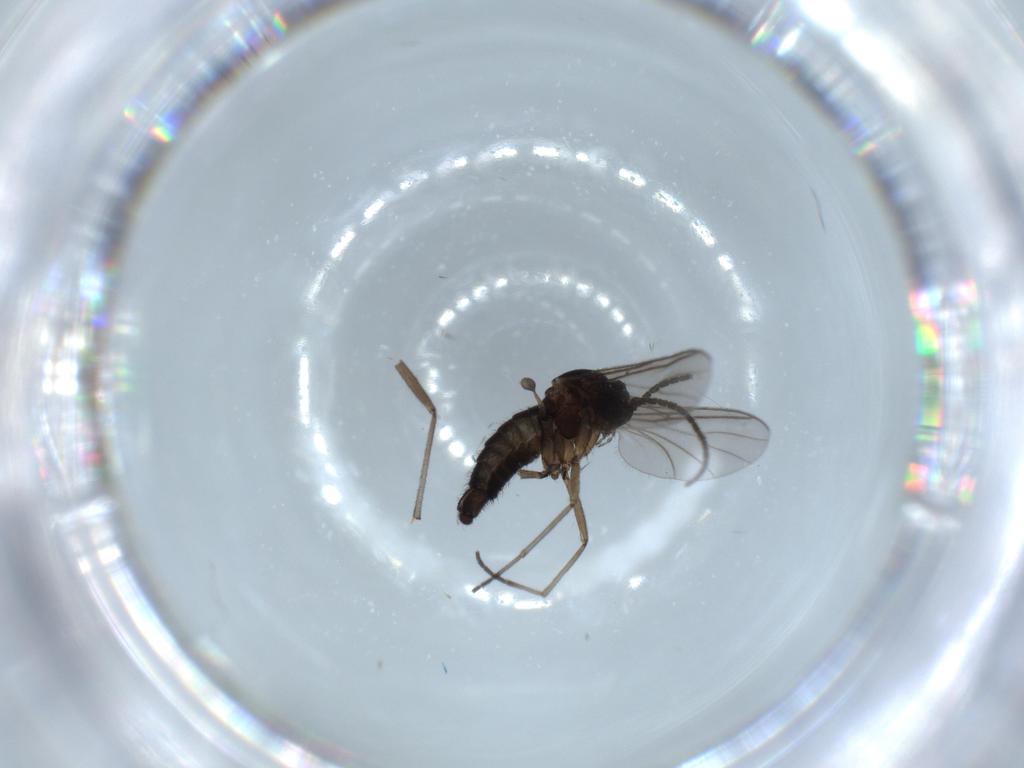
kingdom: Animalia
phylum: Arthropoda
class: Insecta
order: Diptera
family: Sciaridae
